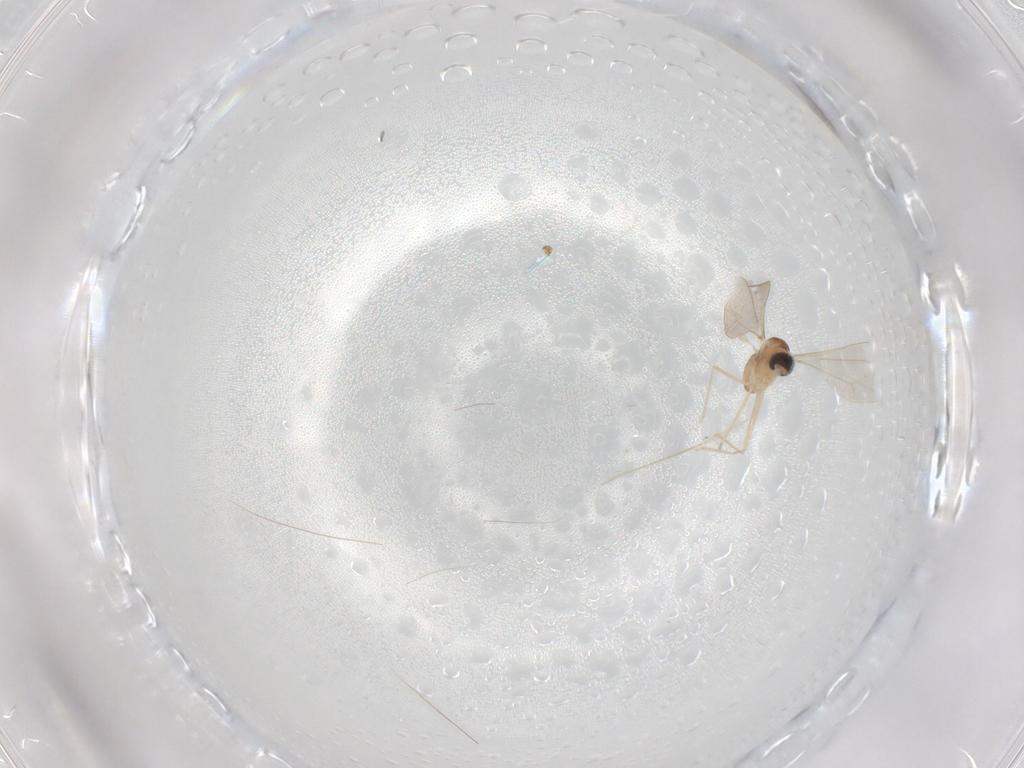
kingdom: Animalia
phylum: Arthropoda
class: Insecta
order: Diptera
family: Cecidomyiidae
